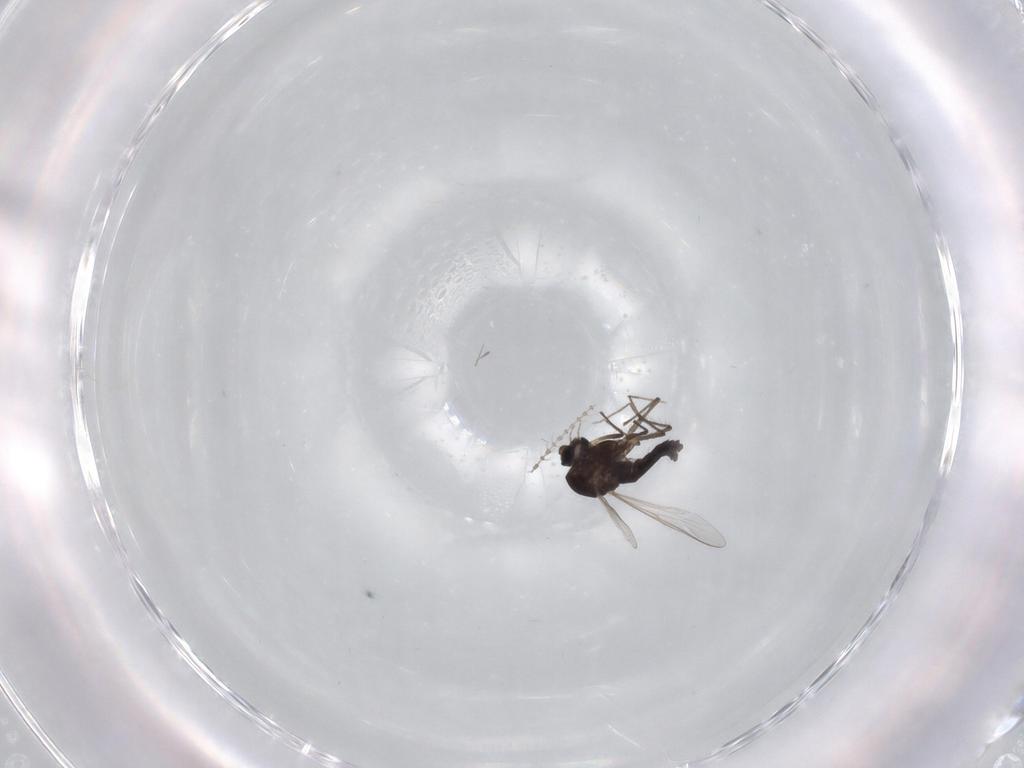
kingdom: Animalia
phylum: Arthropoda
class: Insecta
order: Diptera
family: Chironomidae
